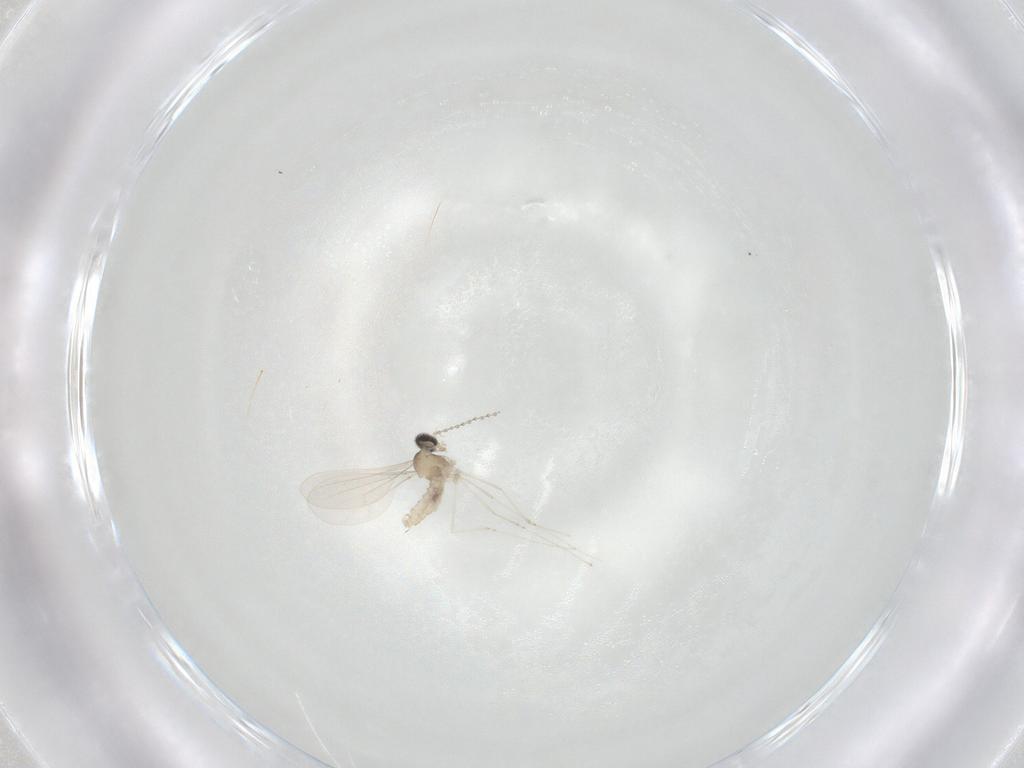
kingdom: Animalia
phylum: Arthropoda
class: Insecta
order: Diptera
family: Cecidomyiidae
